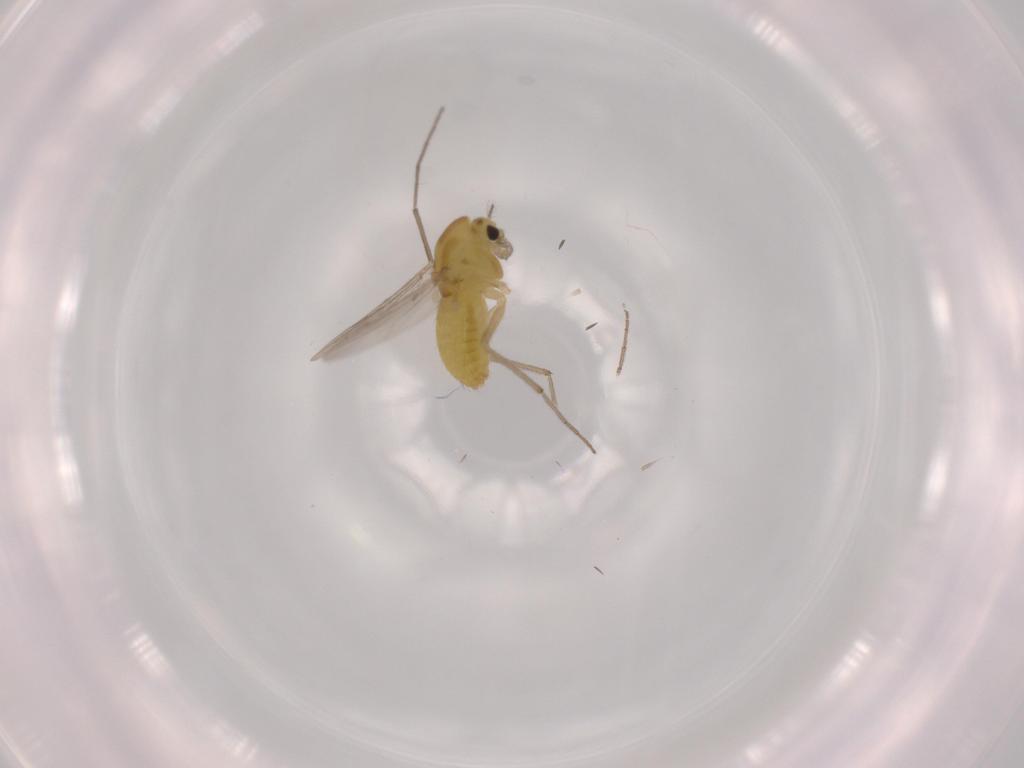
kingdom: Animalia
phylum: Arthropoda
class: Insecta
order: Diptera
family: Chironomidae
